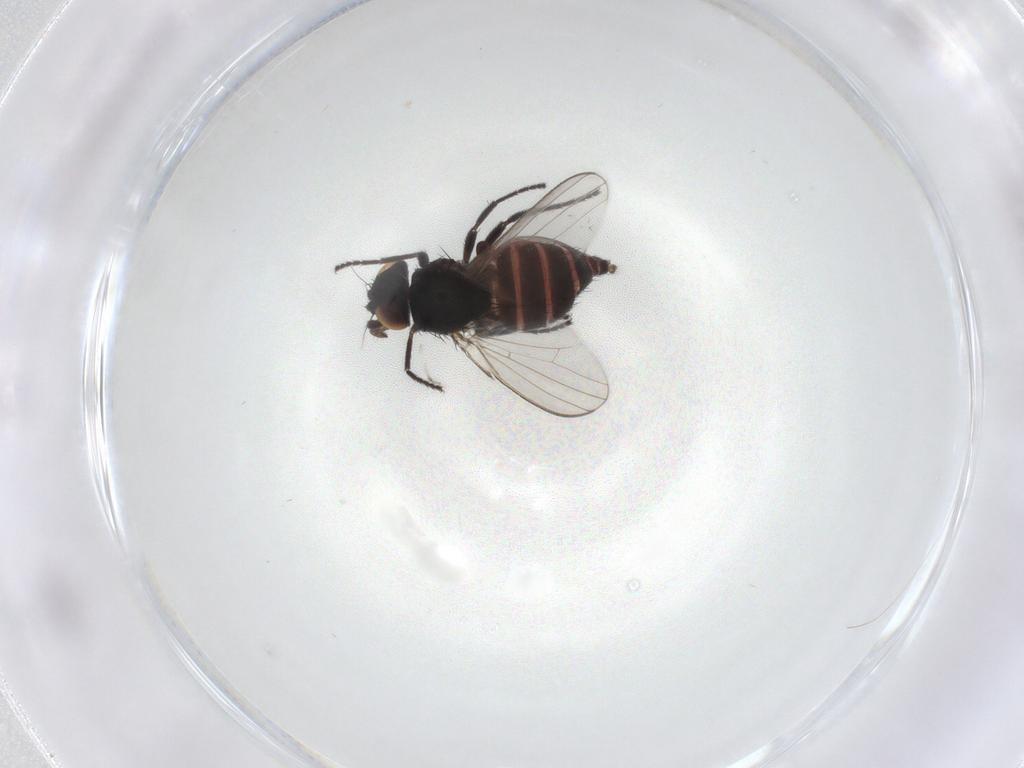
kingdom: Animalia
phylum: Arthropoda
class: Insecta
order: Diptera
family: Milichiidae
